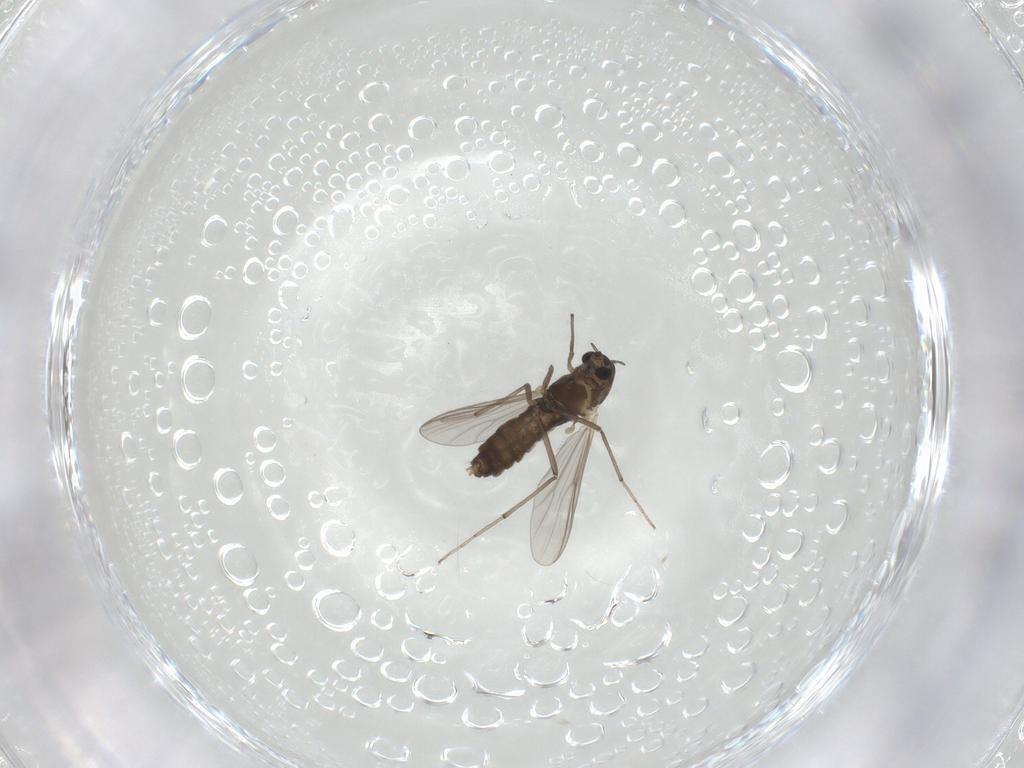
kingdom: Animalia
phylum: Arthropoda
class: Insecta
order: Diptera
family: Chironomidae
